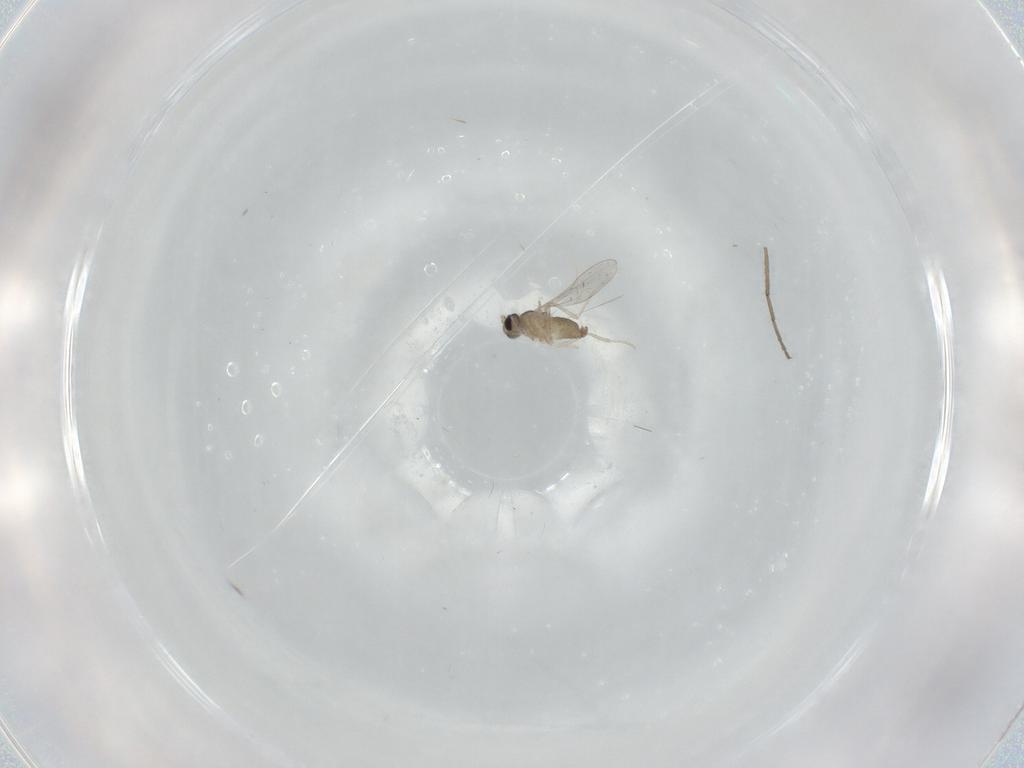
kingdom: Animalia
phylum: Arthropoda
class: Insecta
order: Diptera
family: Cecidomyiidae
